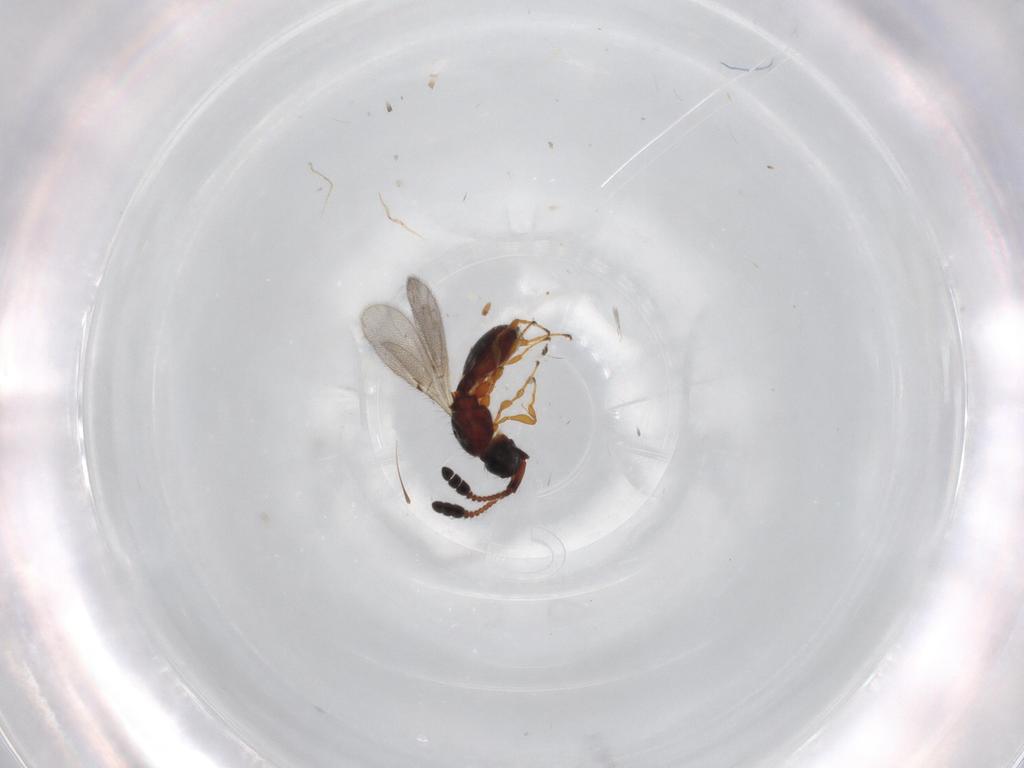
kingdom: Animalia
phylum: Arthropoda
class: Insecta
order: Hymenoptera
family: Diapriidae
